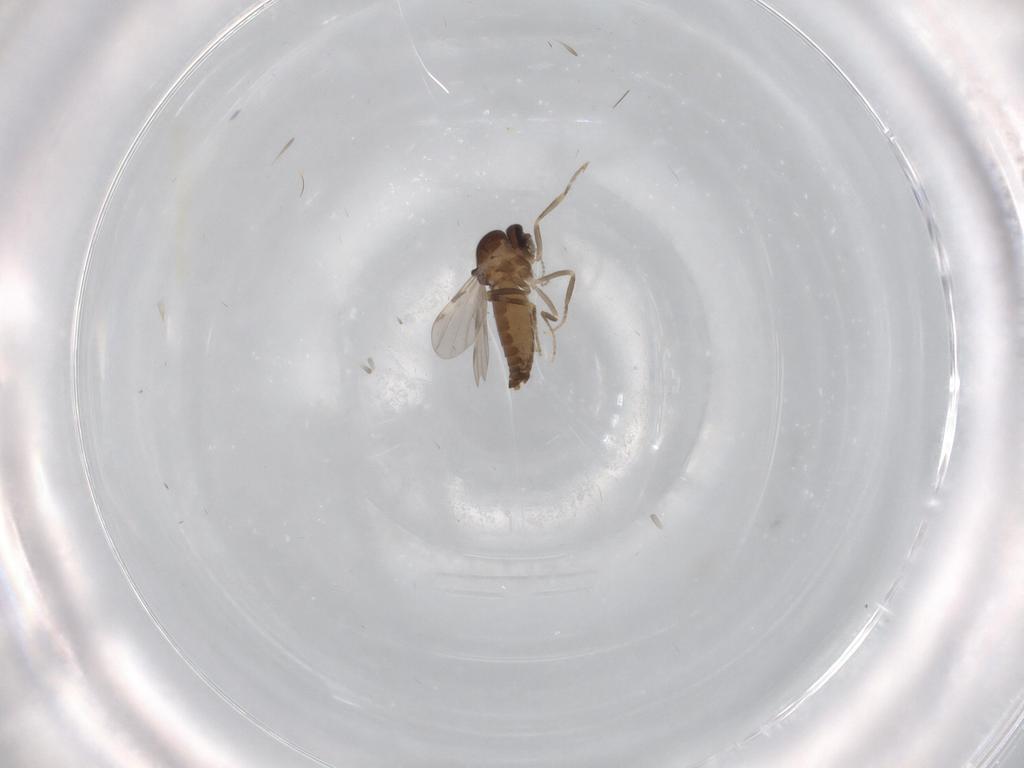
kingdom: Animalia
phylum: Arthropoda
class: Insecta
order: Diptera
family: Ceratopogonidae
